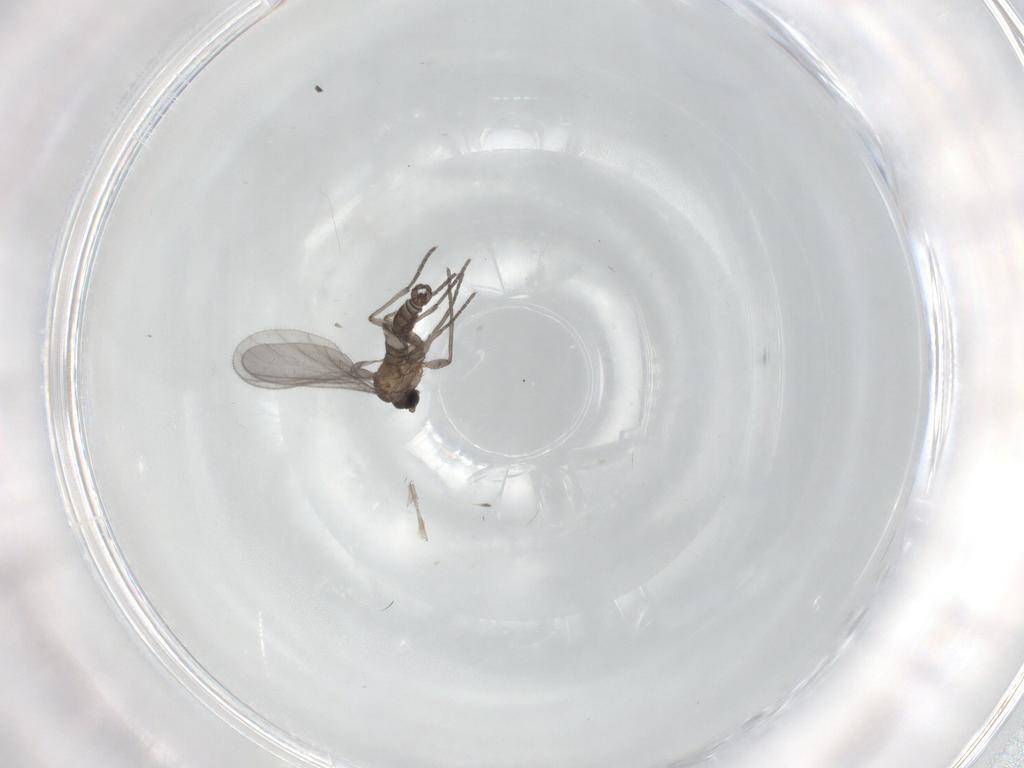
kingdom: Animalia
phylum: Arthropoda
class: Insecta
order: Diptera
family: Sciaridae
